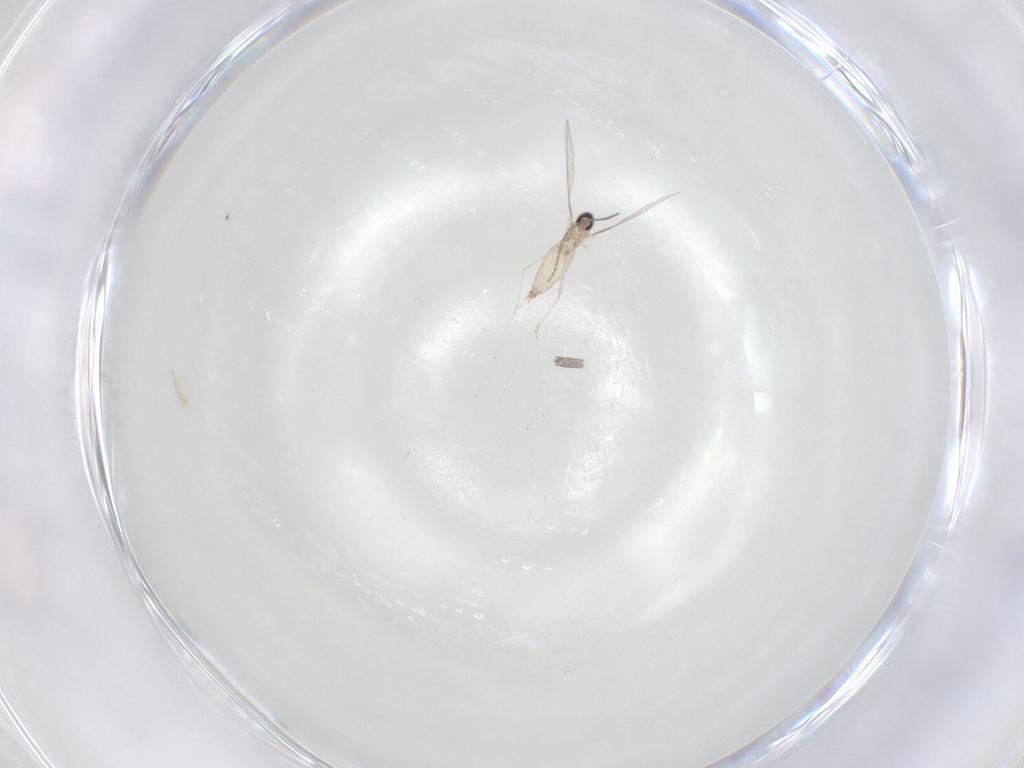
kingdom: Animalia
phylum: Arthropoda
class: Insecta
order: Diptera
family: Cecidomyiidae
